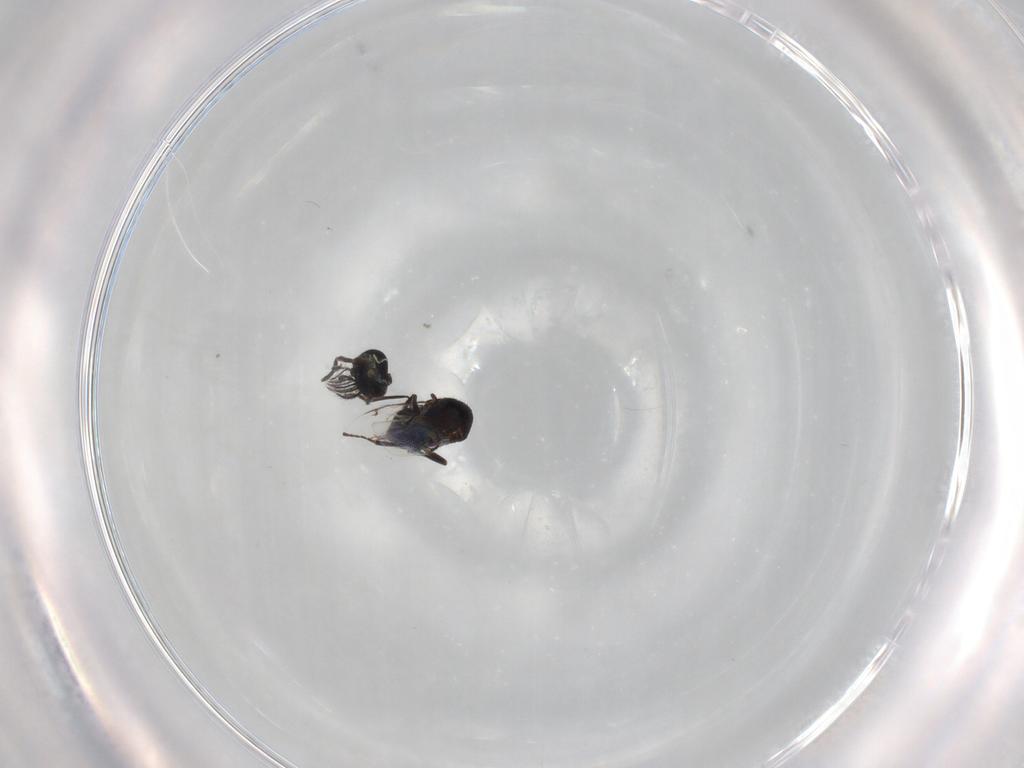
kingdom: Animalia
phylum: Arthropoda
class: Insecta
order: Hymenoptera
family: Encyrtidae
